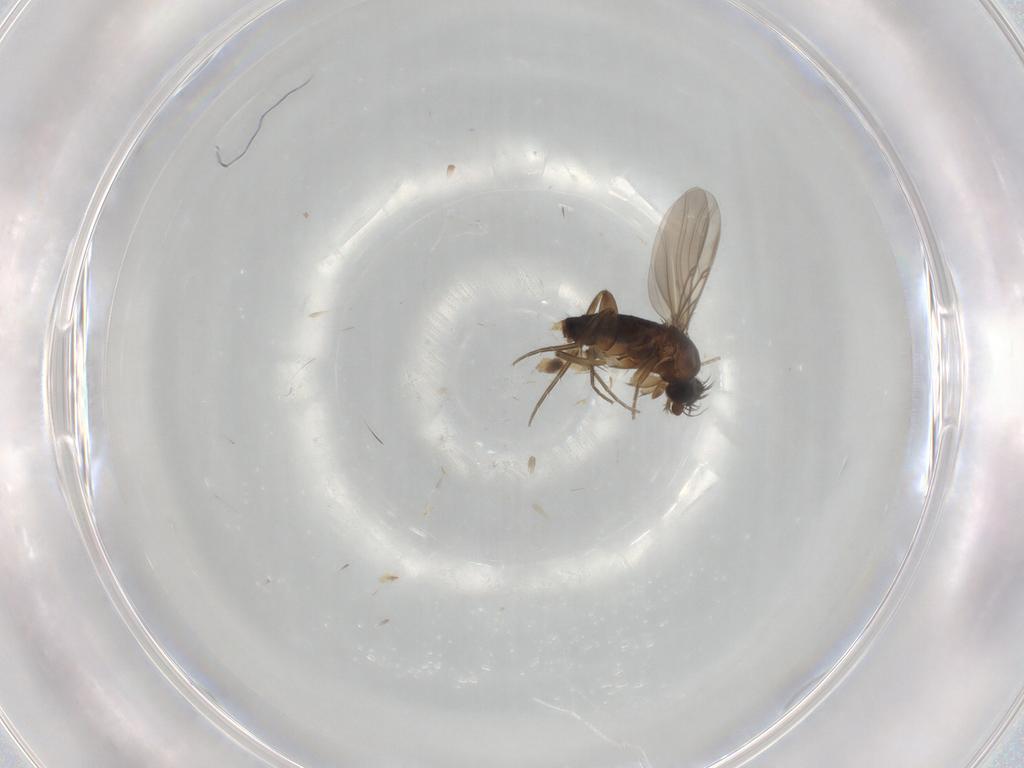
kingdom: Animalia
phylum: Arthropoda
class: Insecta
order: Diptera
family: Phoridae
